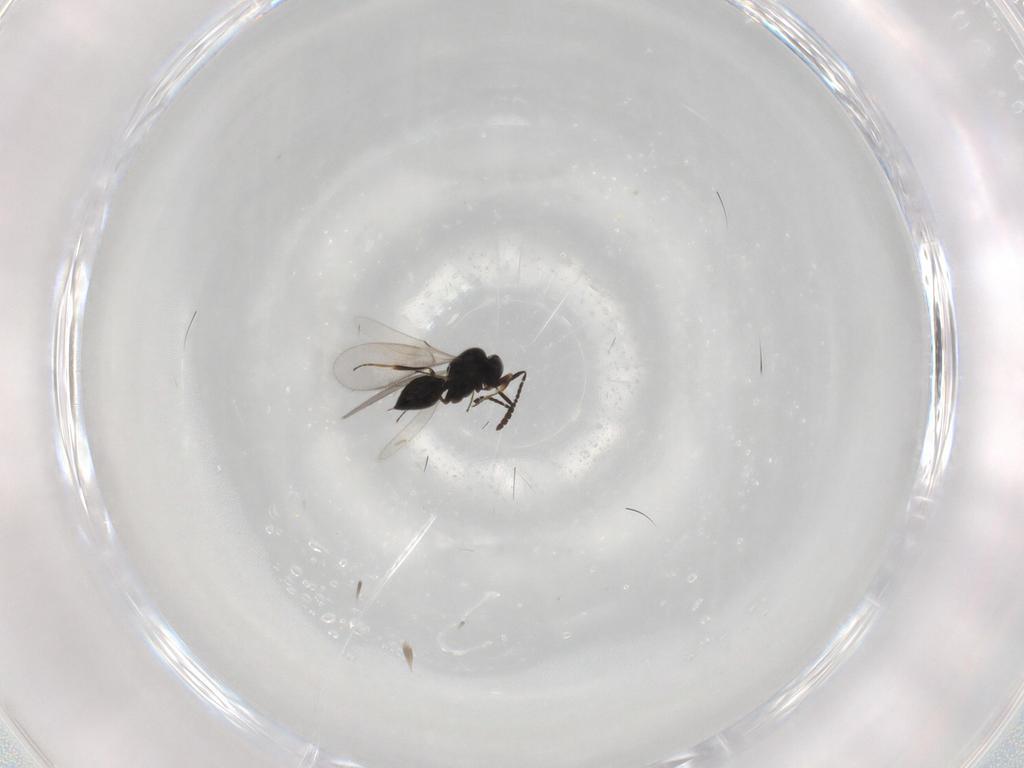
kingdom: Animalia
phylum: Arthropoda
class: Insecta
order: Hymenoptera
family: Scelionidae
